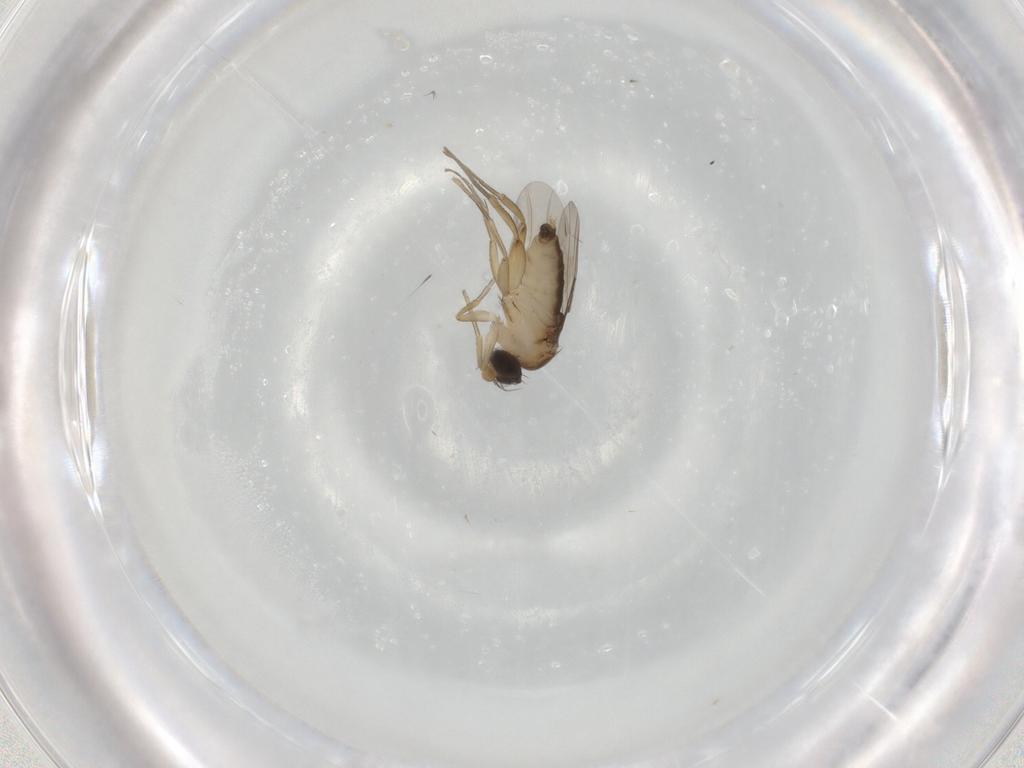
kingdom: Animalia
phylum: Arthropoda
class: Insecta
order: Diptera
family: Phoridae
